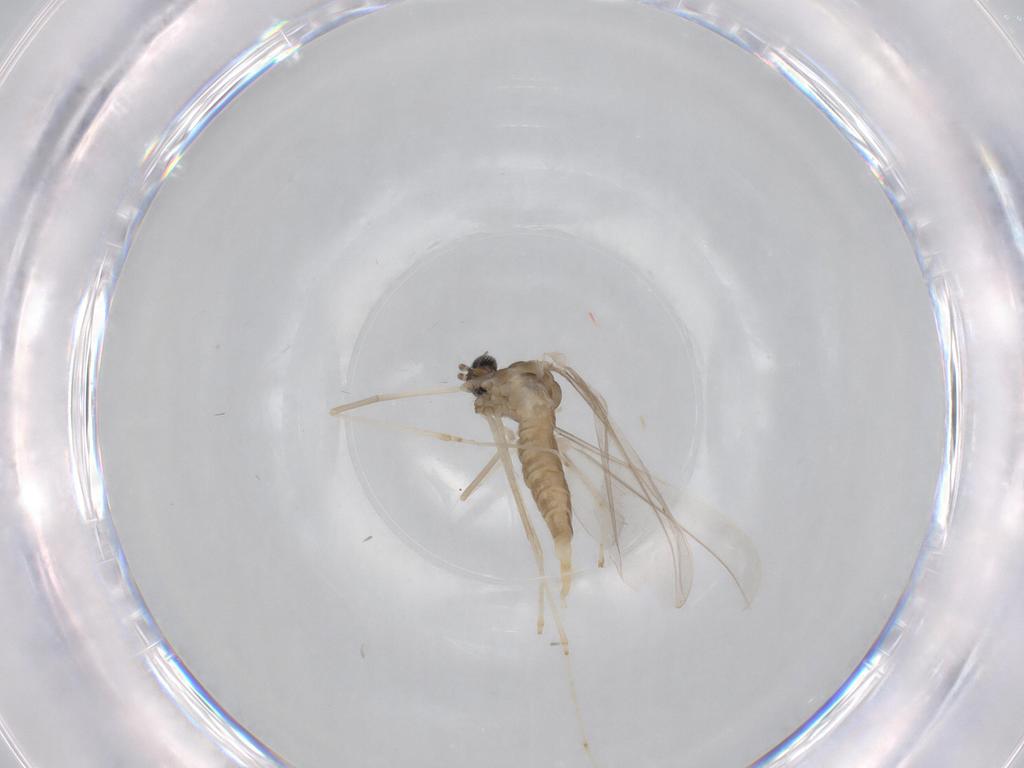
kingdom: Animalia
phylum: Arthropoda
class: Insecta
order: Diptera
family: Cecidomyiidae
